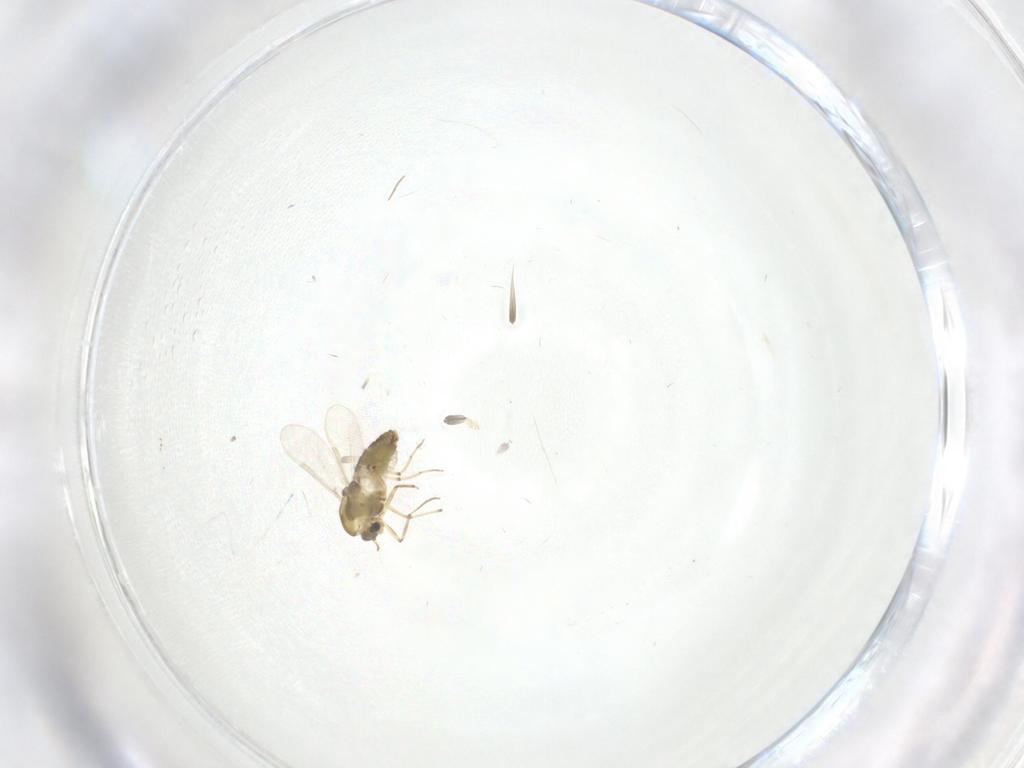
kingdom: Animalia
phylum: Arthropoda
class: Insecta
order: Diptera
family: Chironomidae
